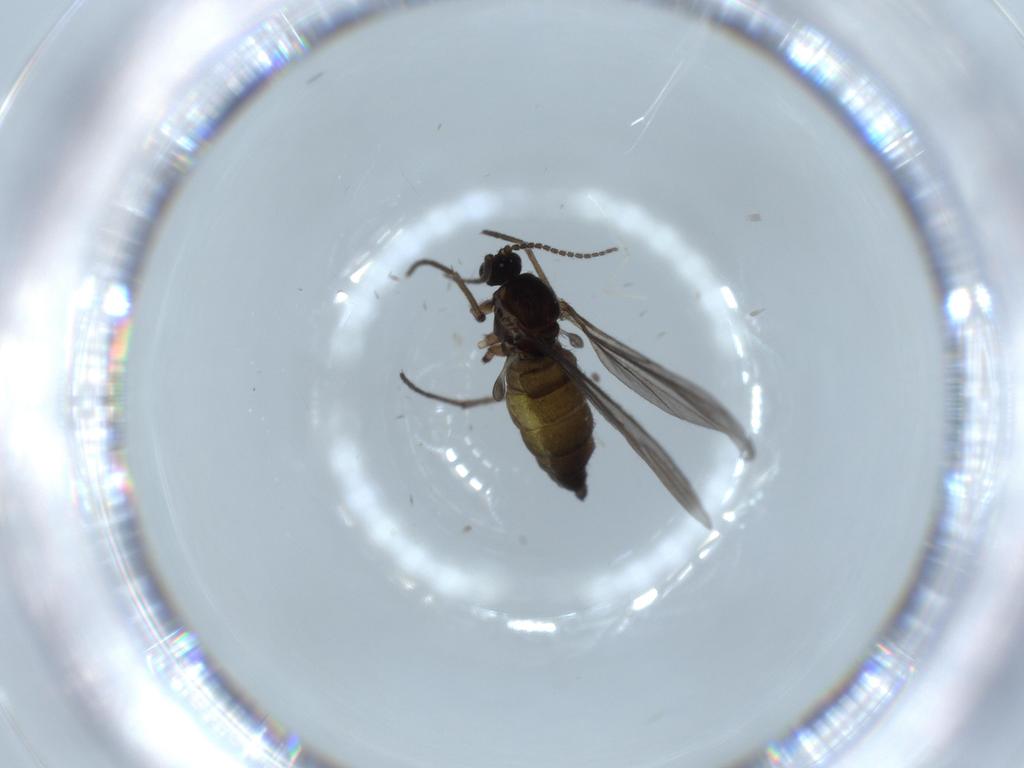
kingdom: Animalia
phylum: Arthropoda
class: Insecta
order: Diptera
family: Sciaridae
